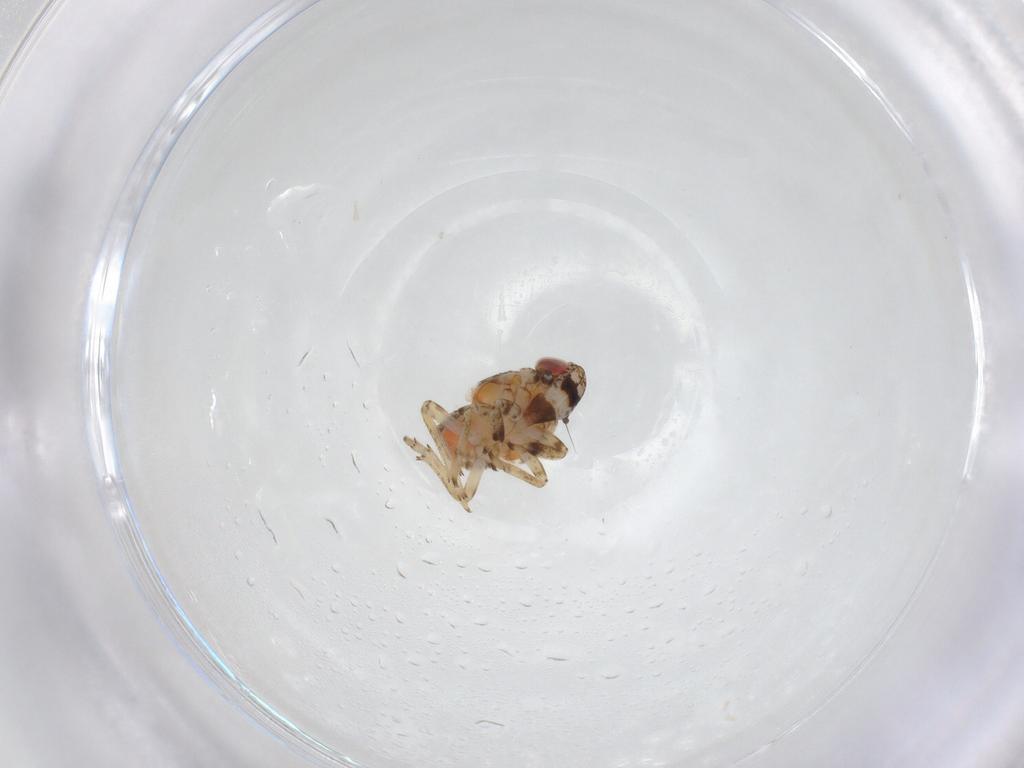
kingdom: Animalia
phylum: Arthropoda
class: Insecta
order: Hemiptera
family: Issidae
